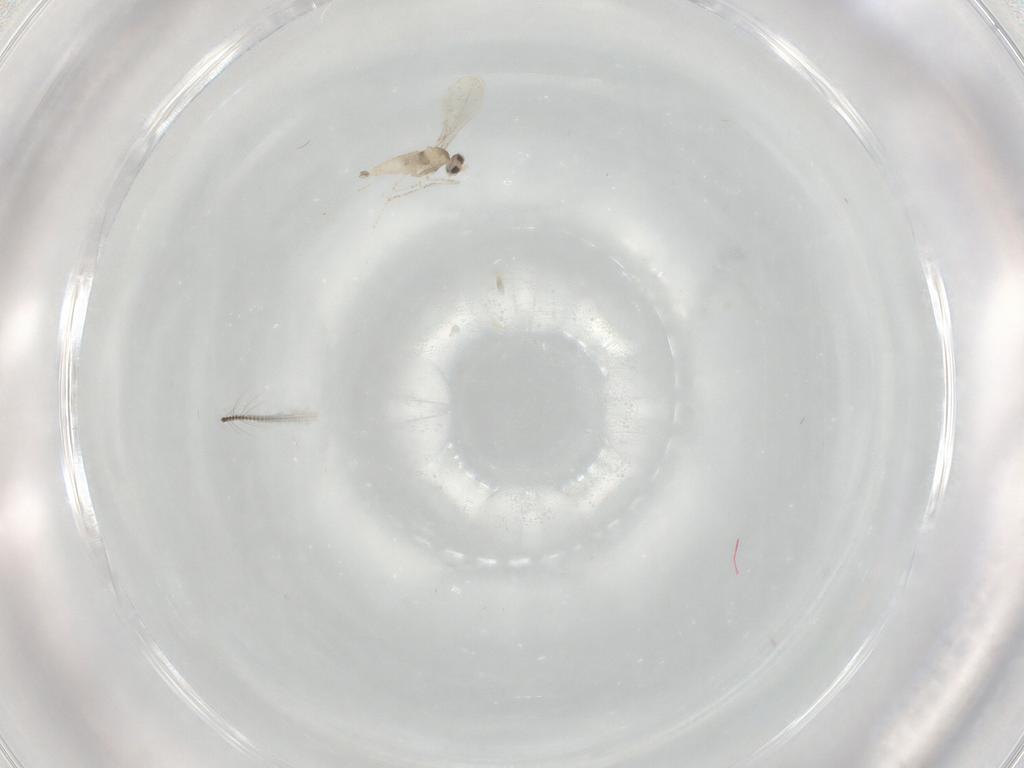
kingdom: Animalia
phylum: Arthropoda
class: Insecta
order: Diptera
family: Cecidomyiidae
